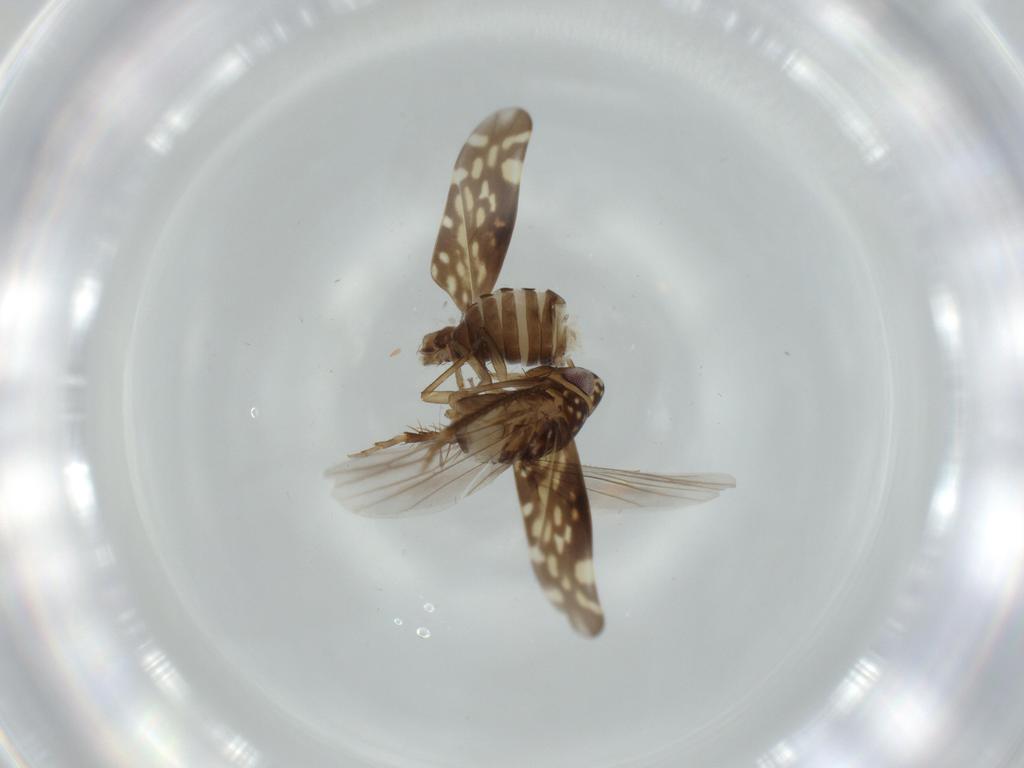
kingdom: Animalia
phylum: Arthropoda
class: Insecta
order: Hemiptera
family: Cicadellidae
